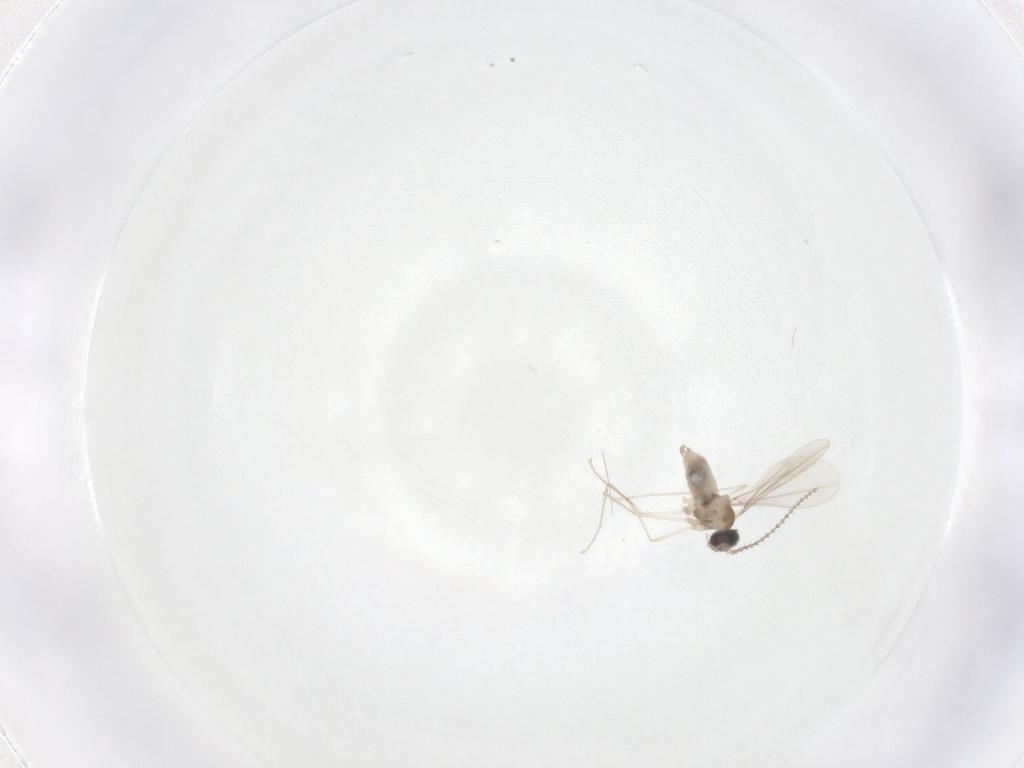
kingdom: Animalia
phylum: Arthropoda
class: Insecta
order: Diptera
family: Cecidomyiidae
